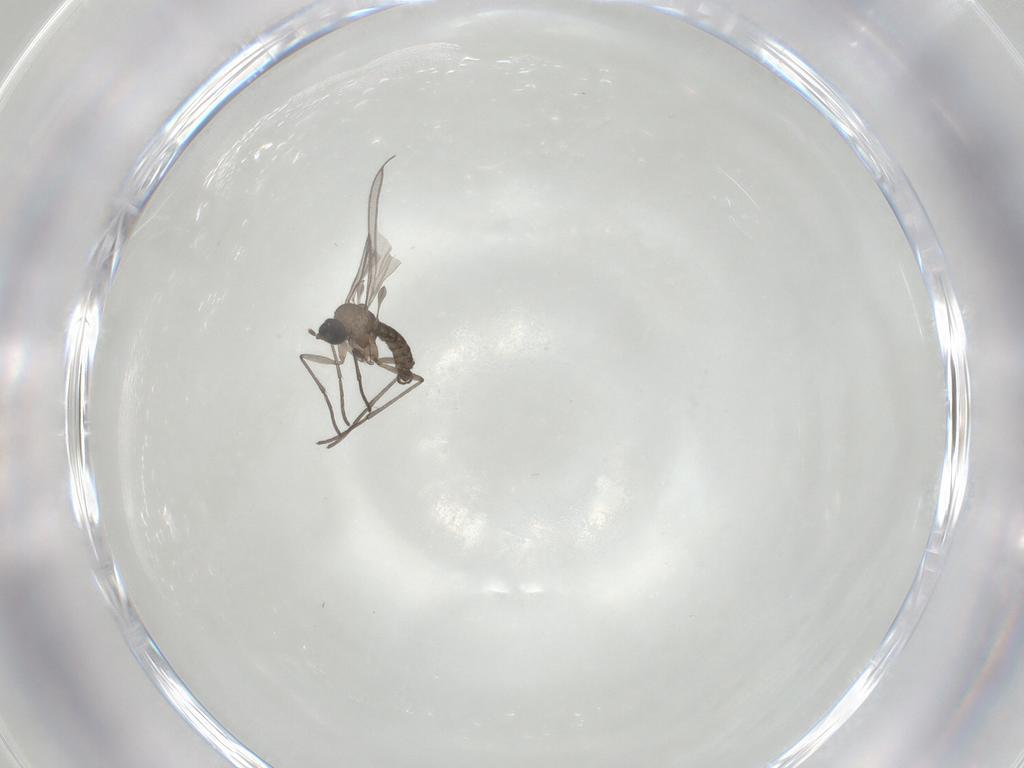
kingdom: Animalia
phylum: Arthropoda
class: Insecta
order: Diptera
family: Chironomidae
